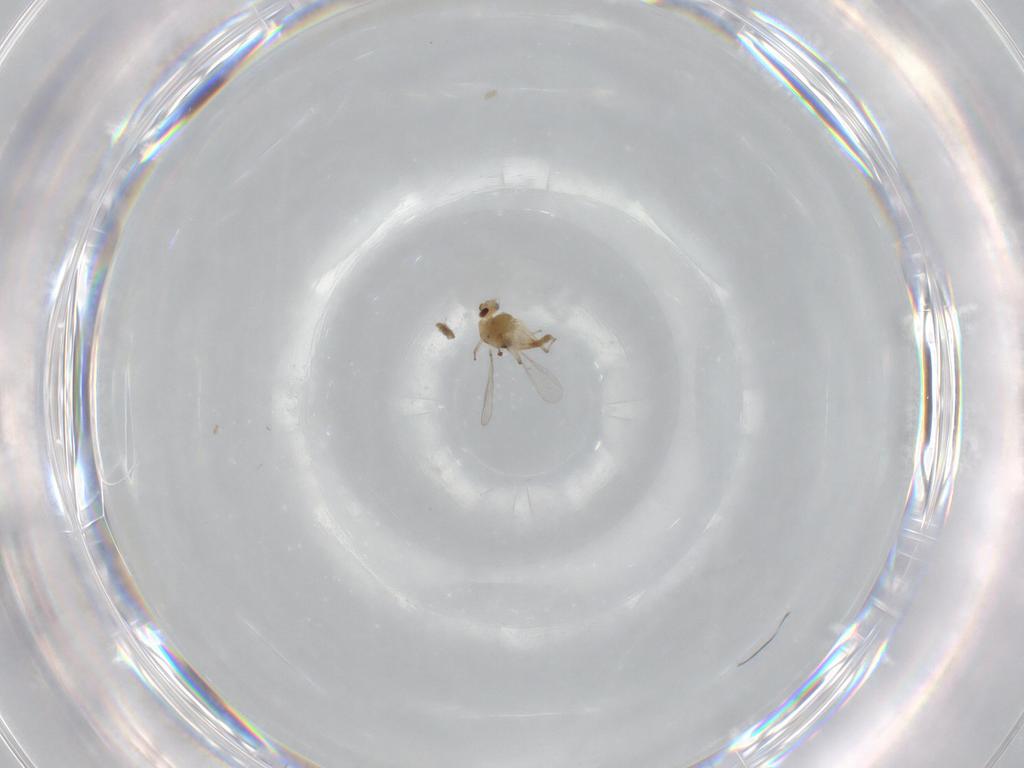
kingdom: Animalia
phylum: Arthropoda
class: Insecta
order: Diptera
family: Chironomidae
